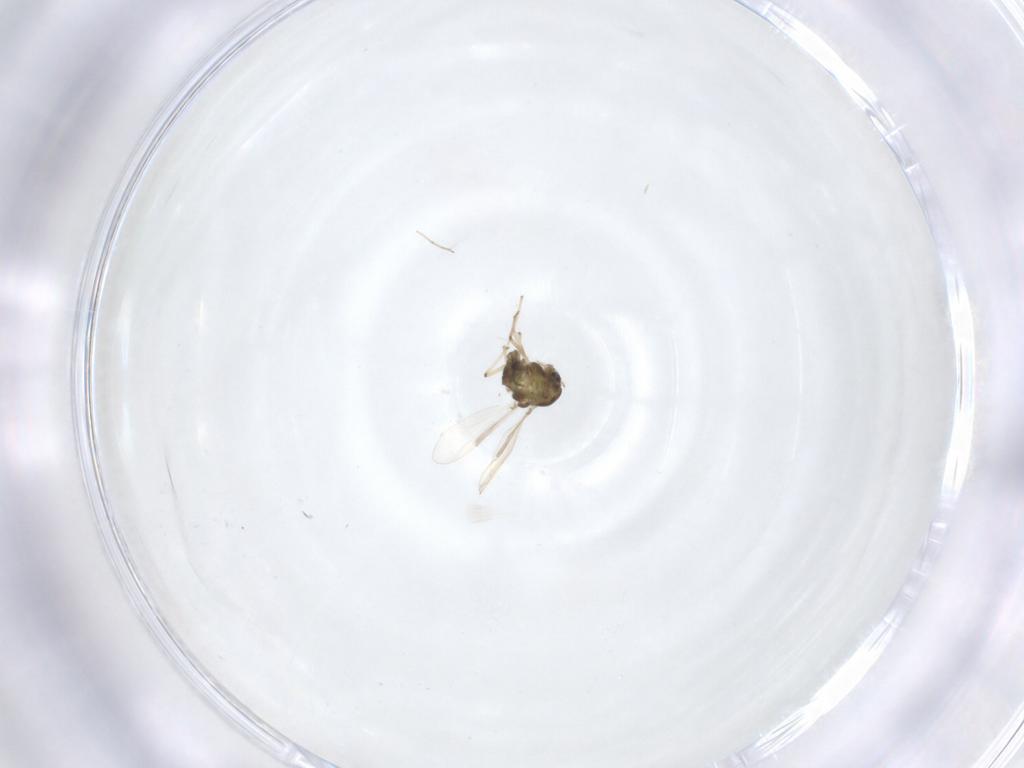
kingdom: Animalia
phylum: Arthropoda
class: Insecta
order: Diptera
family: Chironomidae
